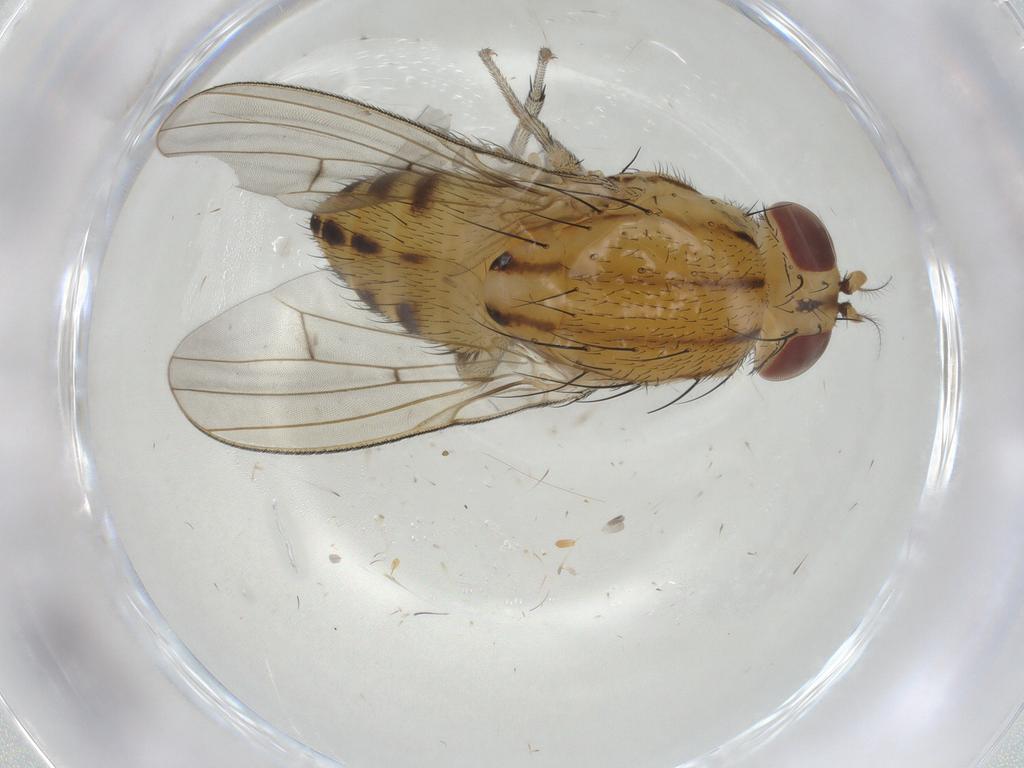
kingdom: Animalia
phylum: Arthropoda
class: Insecta
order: Diptera
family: Lauxaniidae
